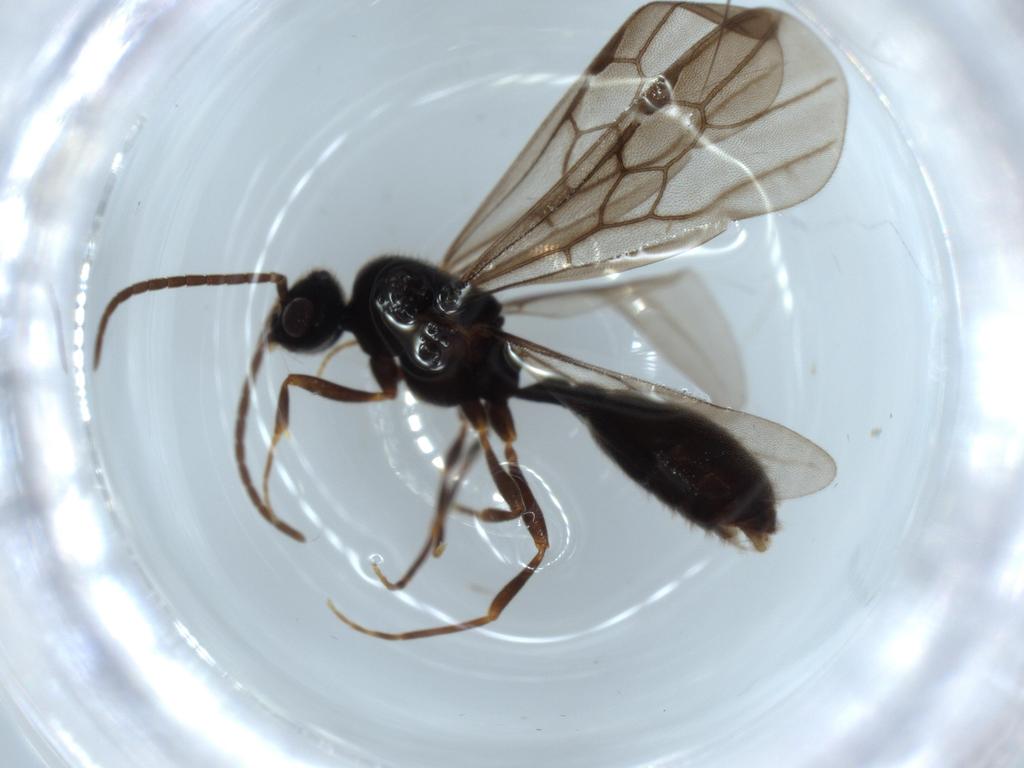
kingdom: Animalia
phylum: Arthropoda
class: Insecta
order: Hymenoptera
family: Formicidae
